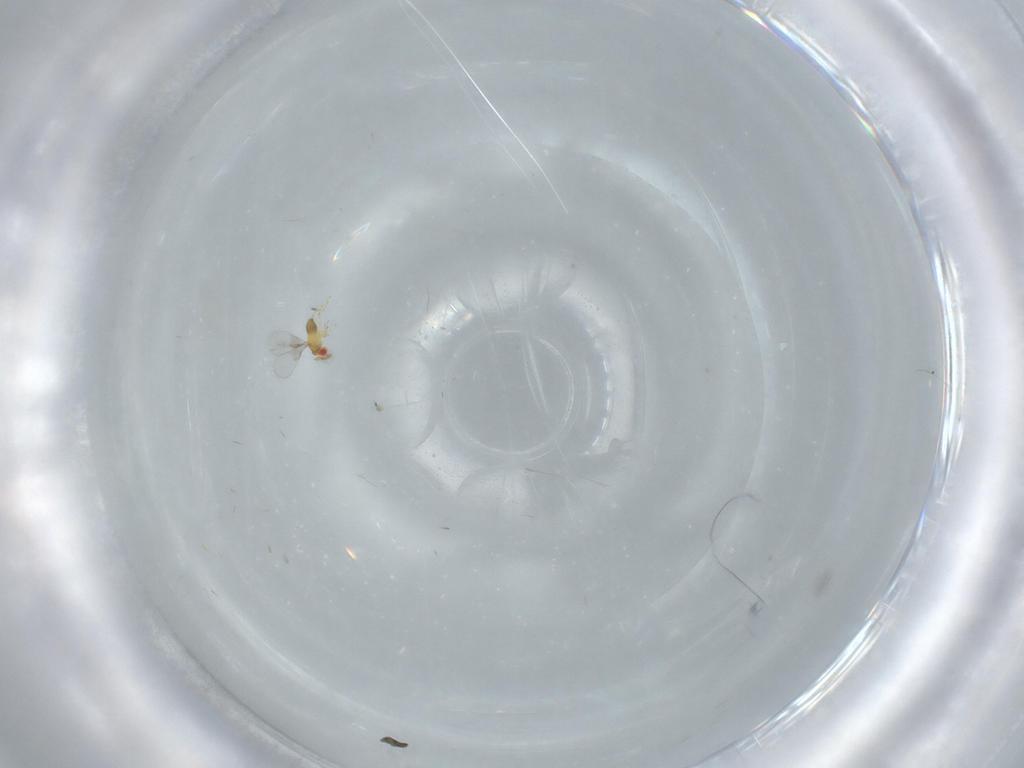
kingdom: Animalia
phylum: Arthropoda
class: Insecta
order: Hymenoptera
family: Trichogrammatidae
